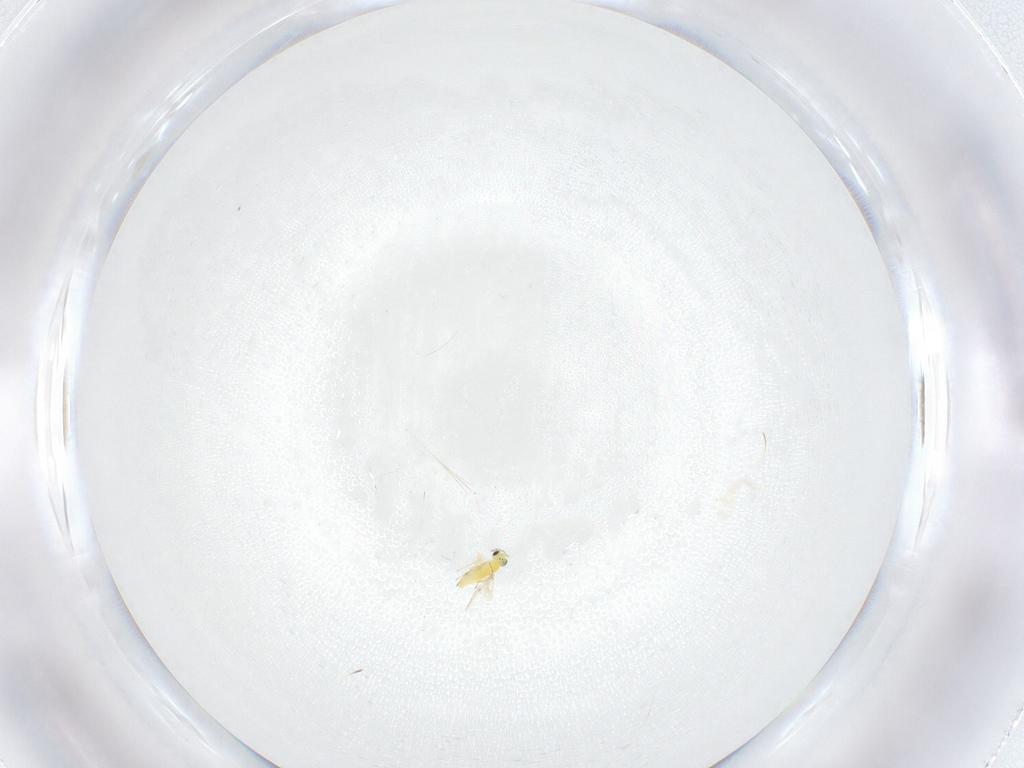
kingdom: Animalia
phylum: Arthropoda
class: Insecta
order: Hymenoptera
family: Trichogrammatidae
